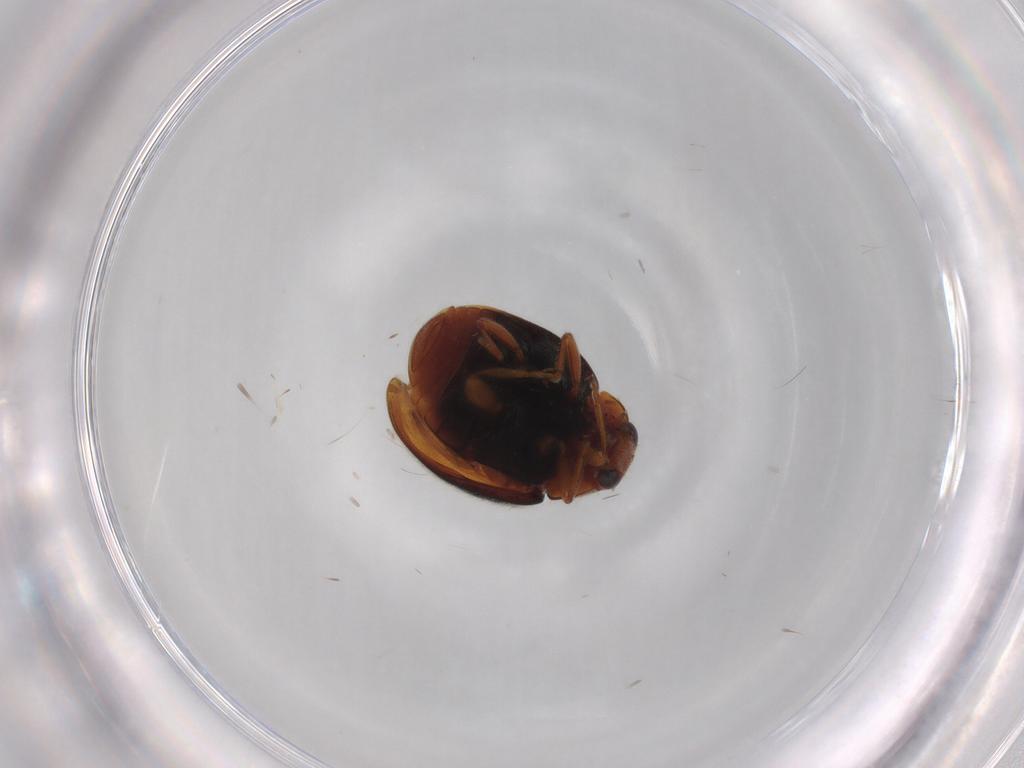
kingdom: Animalia
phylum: Arthropoda
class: Insecta
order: Coleoptera
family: Coccinellidae
